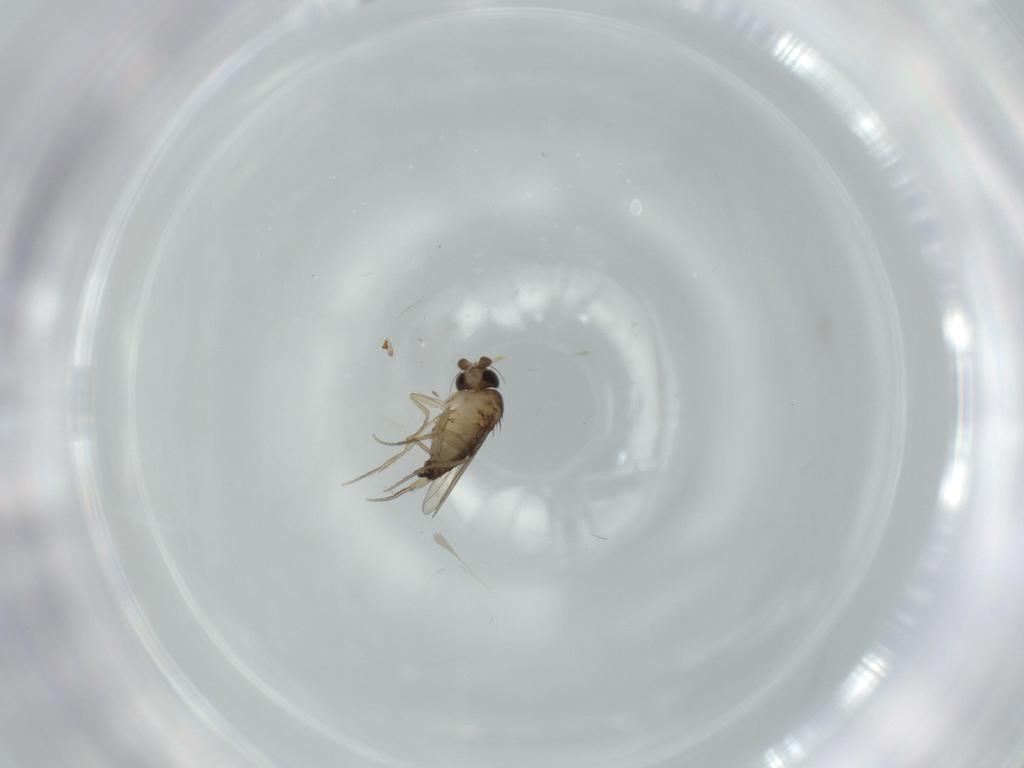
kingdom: Animalia
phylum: Arthropoda
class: Insecta
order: Diptera
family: Phoridae
